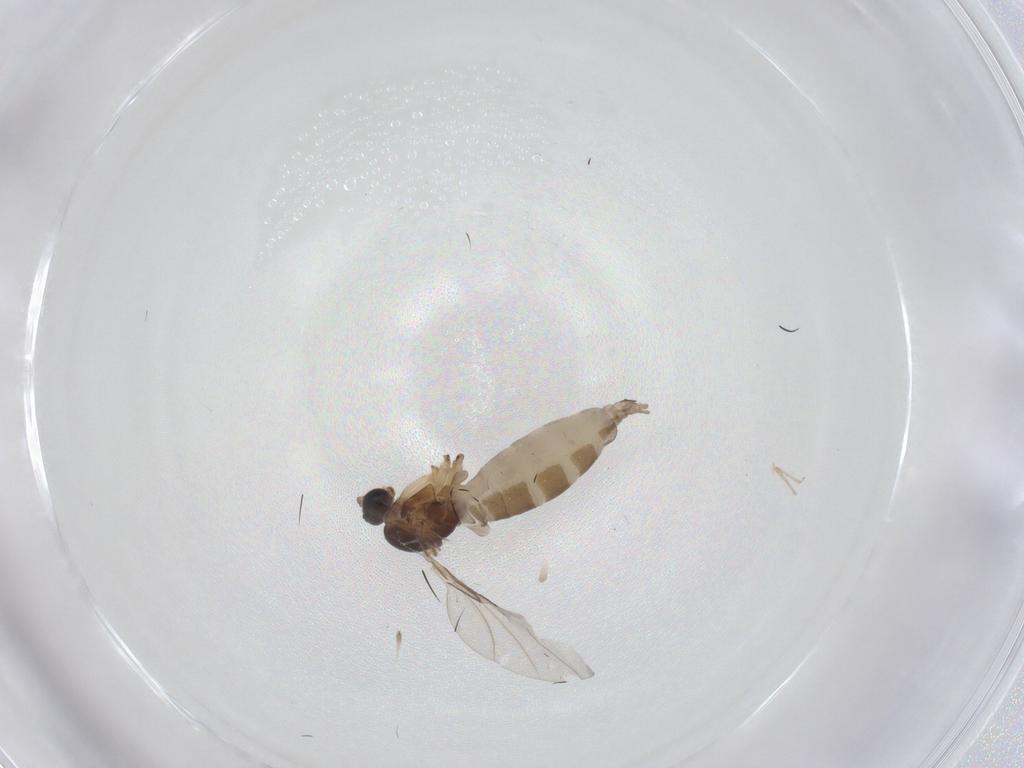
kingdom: Animalia
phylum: Arthropoda
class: Insecta
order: Diptera
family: Sciaridae
